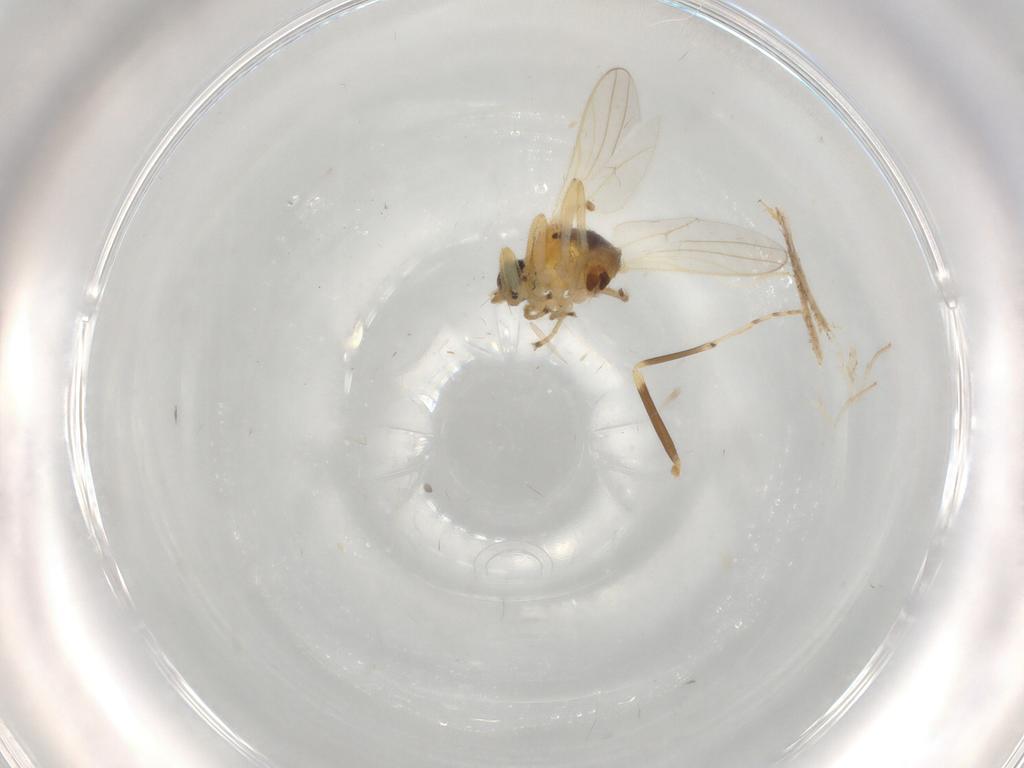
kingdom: Animalia
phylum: Arthropoda
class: Insecta
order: Diptera
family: Hybotidae
